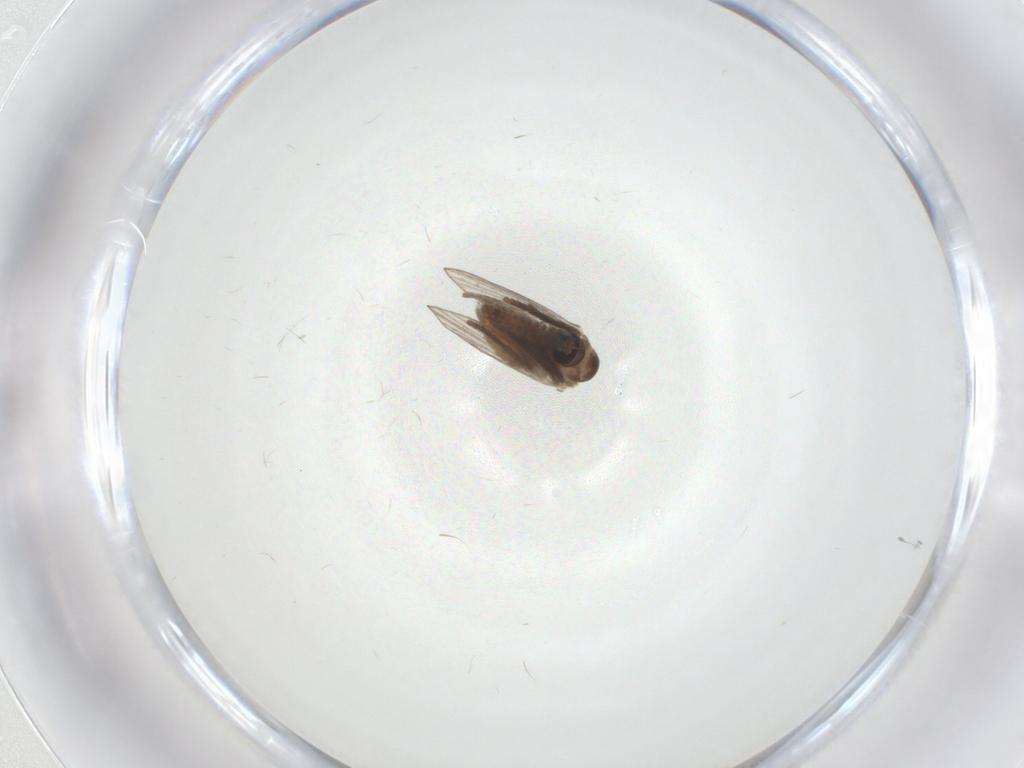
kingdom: Animalia
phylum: Arthropoda
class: Insecta
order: Diptera
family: Psychodidae
